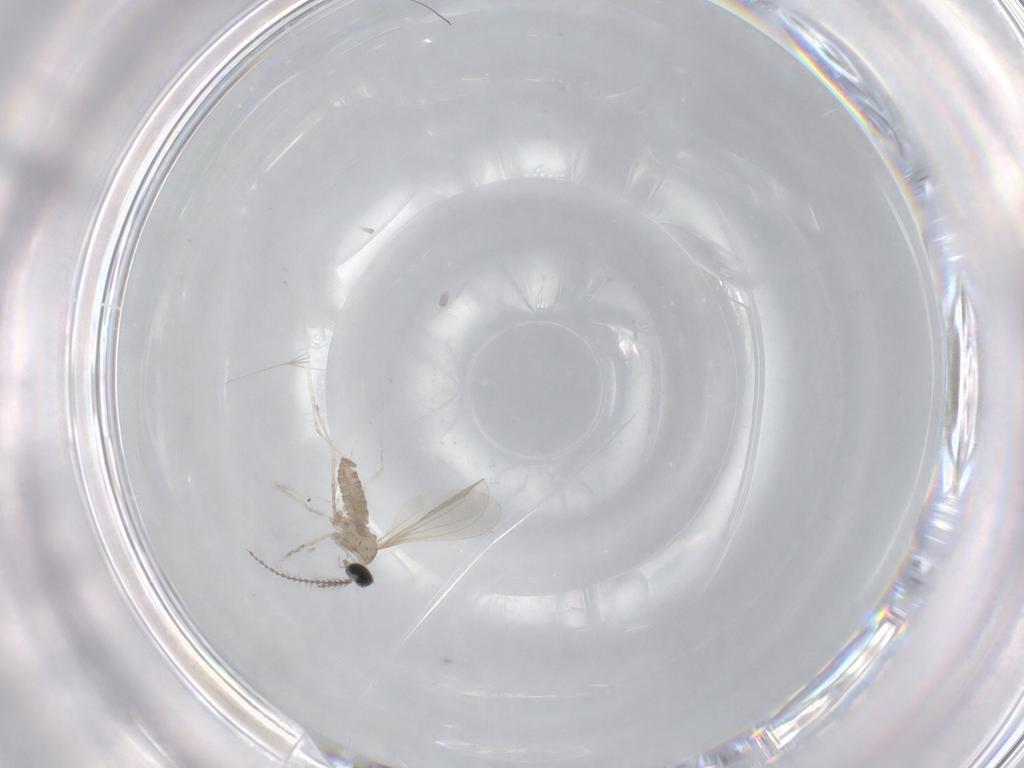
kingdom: Animalia
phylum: Arthropoda
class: Insecta
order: Diptera
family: Cecidomyiidae
